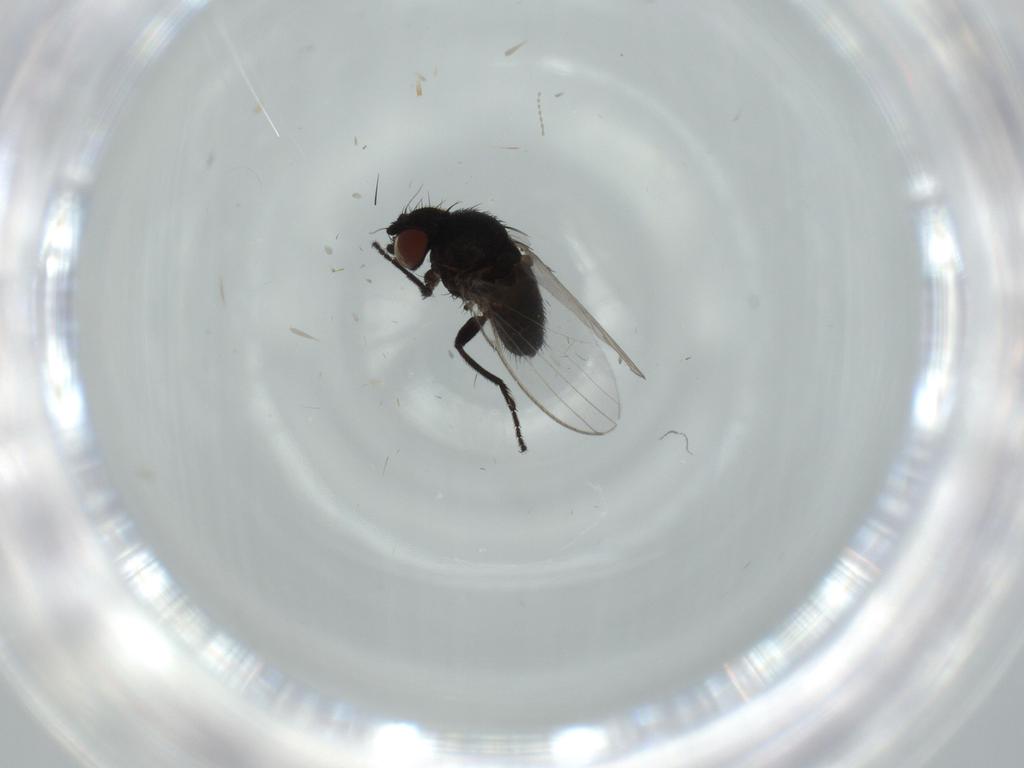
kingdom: Animalia
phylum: Arthropoda
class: Insecta
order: Diptera
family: Milichiidae
